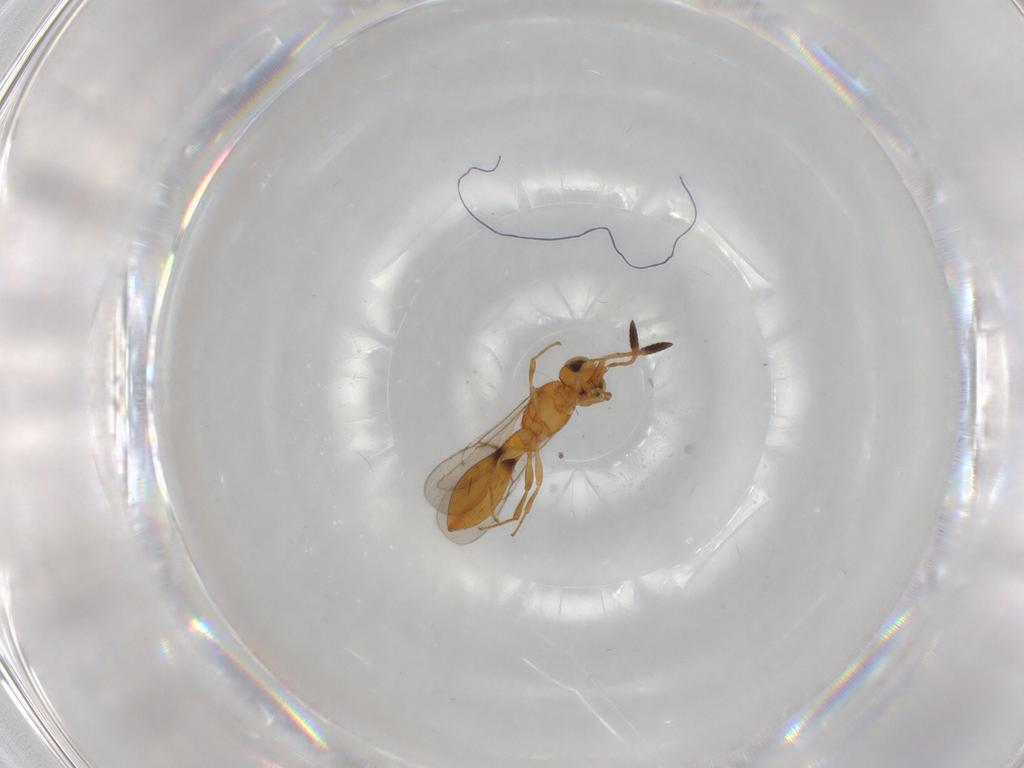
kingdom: Animalia
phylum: Arthropoda
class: Insecta
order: Hymenoptera
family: Scelionidae
